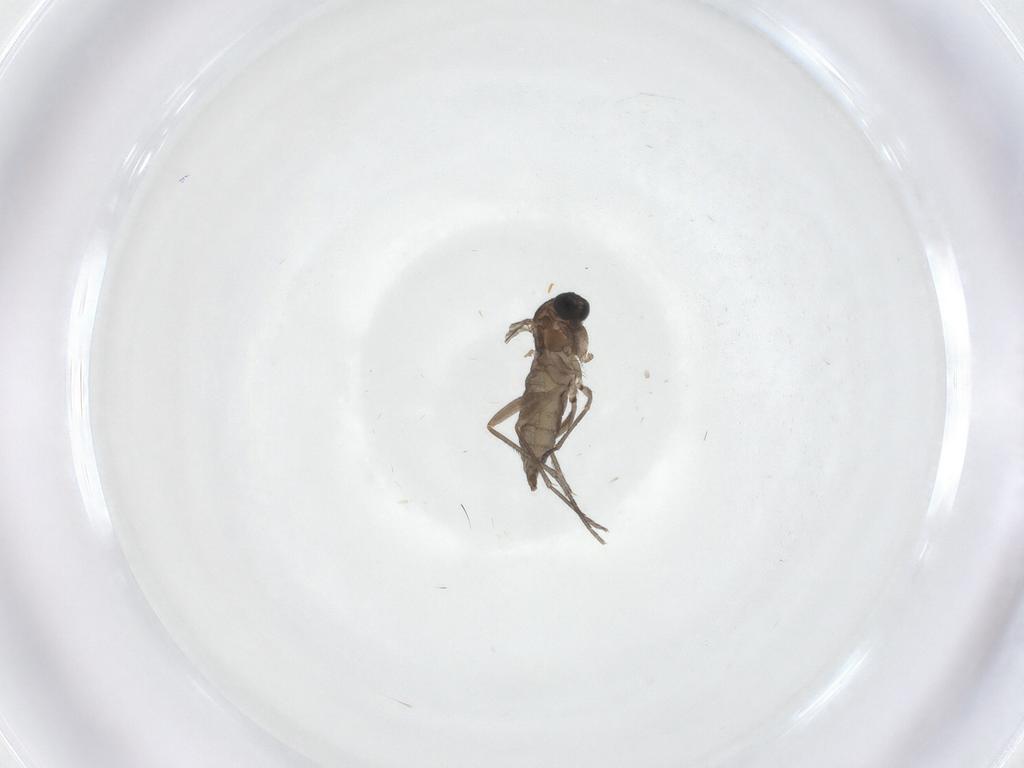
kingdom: Animalia
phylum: Arthropoda
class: Insecta
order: Diptera
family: Sciaridae
